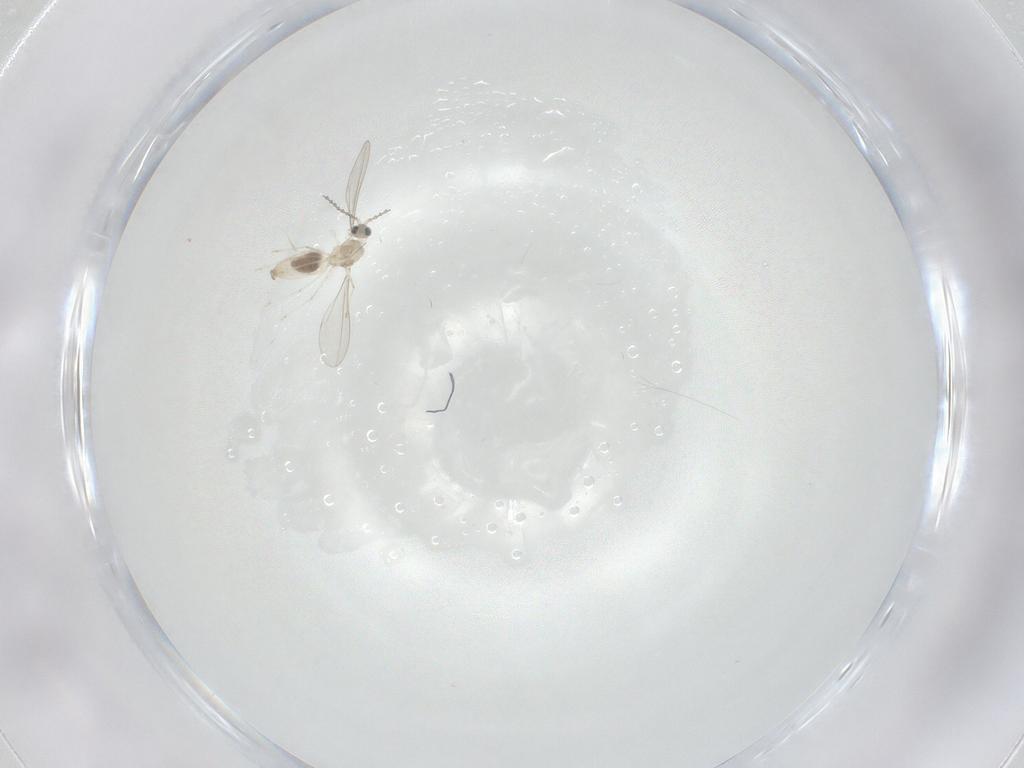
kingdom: Animalia
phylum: Arthropoda
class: Insecta
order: Diptera
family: Cecidomyiidae
